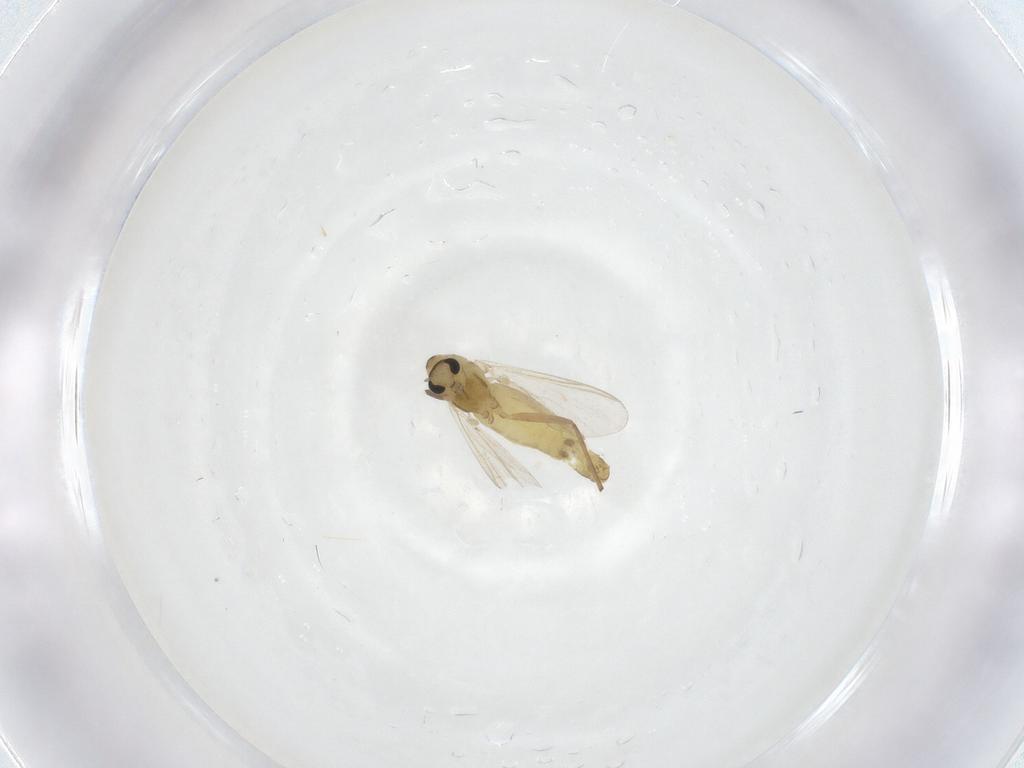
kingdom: Animalia
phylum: Arthropoda
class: Insecta
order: Diptera
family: Chironomidae
